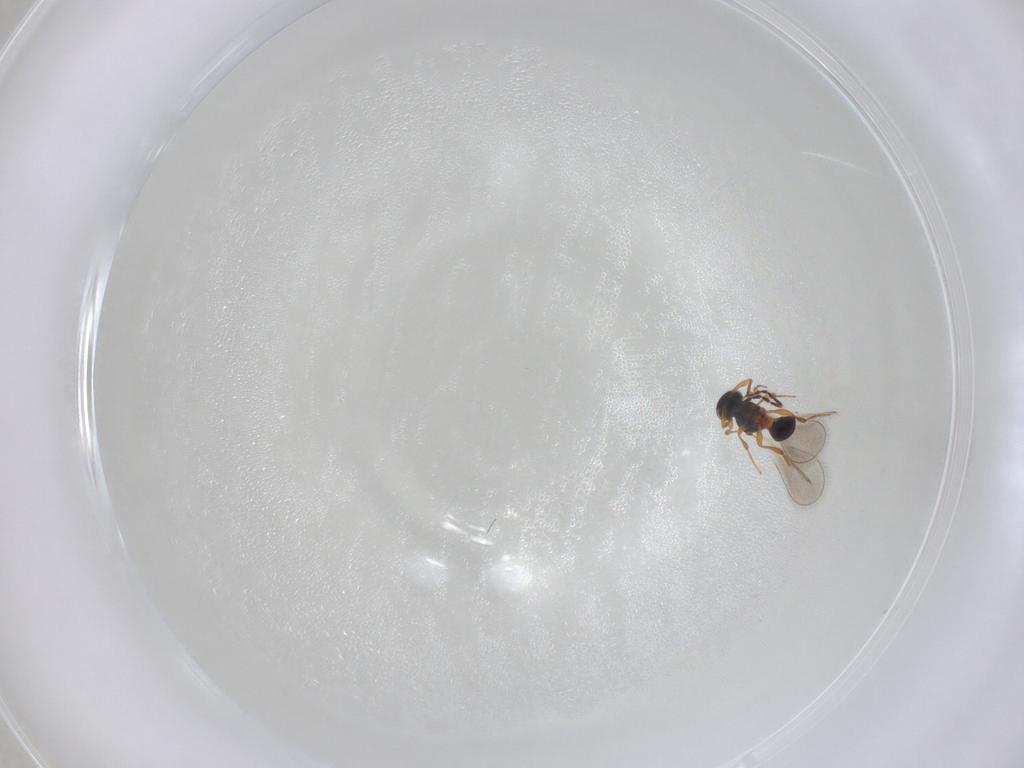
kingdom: Animalia
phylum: Arthropoda
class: Insecta
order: Hymenoptera
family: Platygastridae
